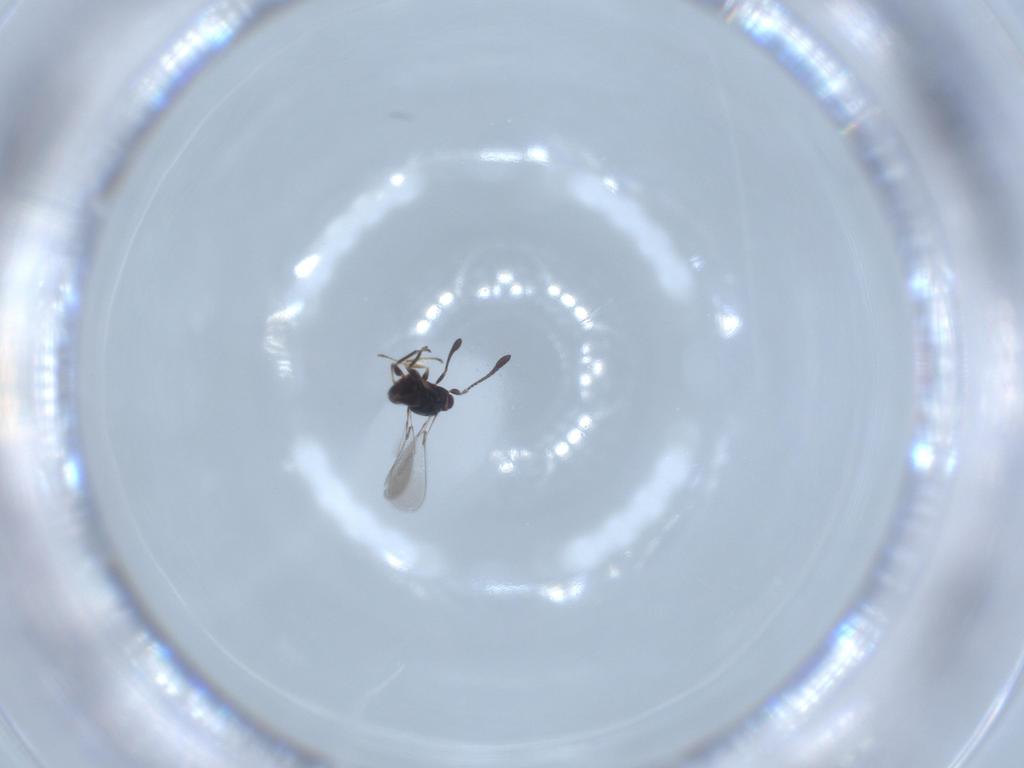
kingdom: Animalia
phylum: Arthropoda
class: Insecta
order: Hymenoptera
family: Mymaridae
